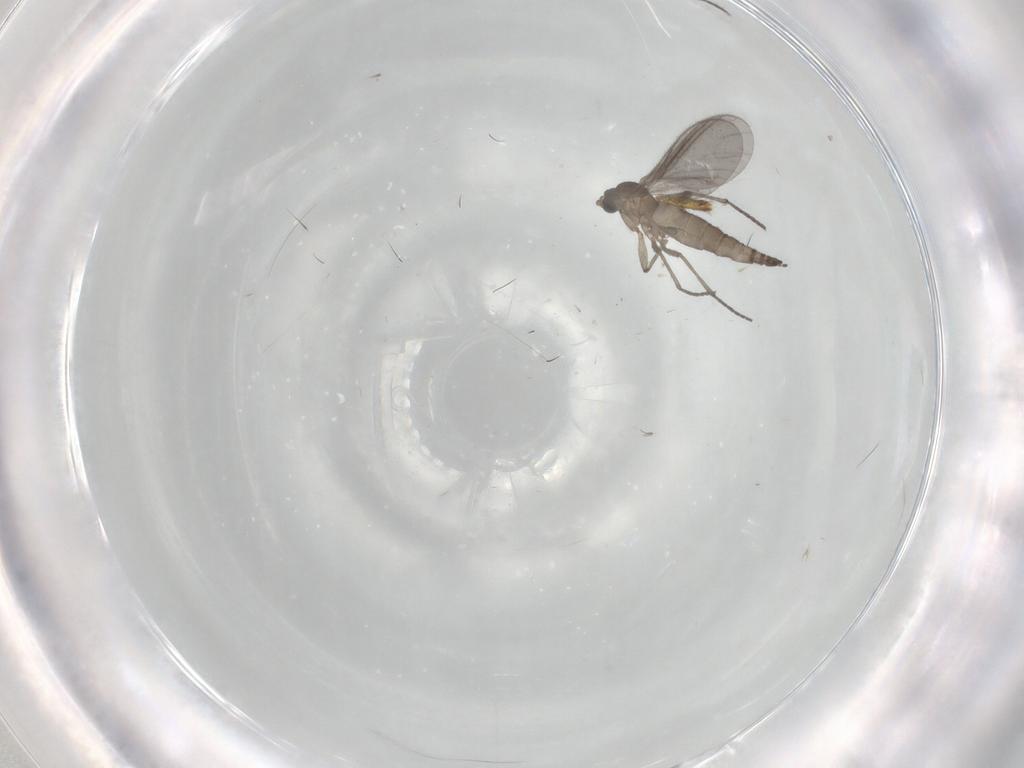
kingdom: Animalia
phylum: Arthropoda
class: Insecta
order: Diptera
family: Sciaridae
